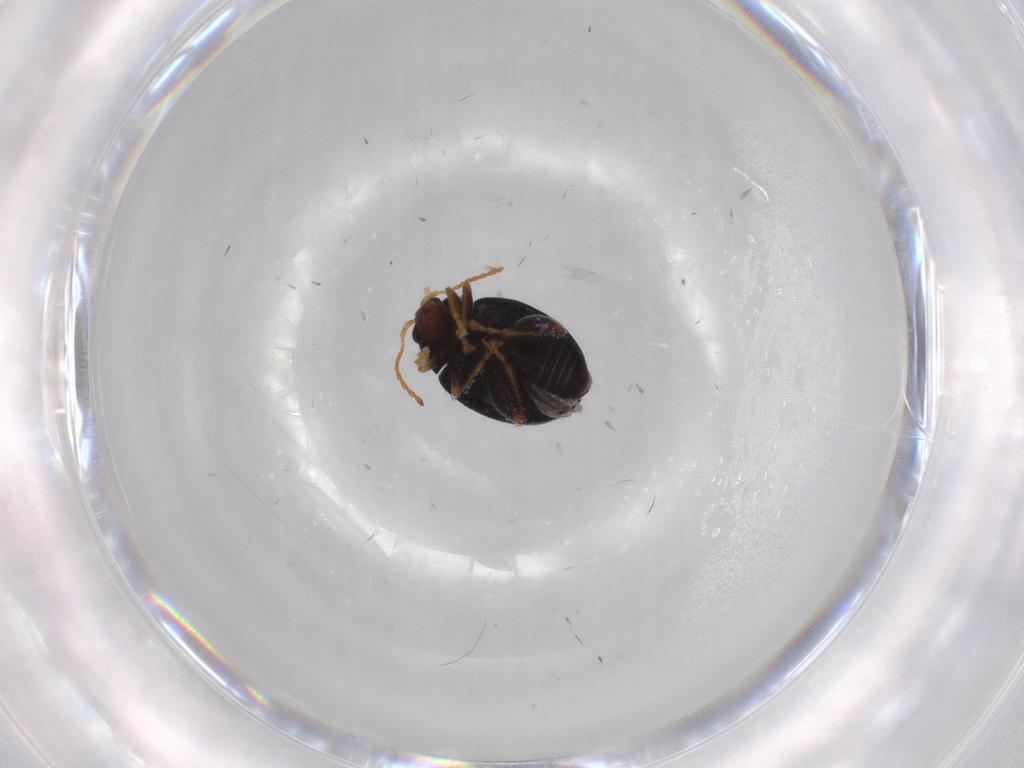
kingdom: Animalia
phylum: Arthropoda
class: Insecta
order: Coleoptera
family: Chrysomelidae
